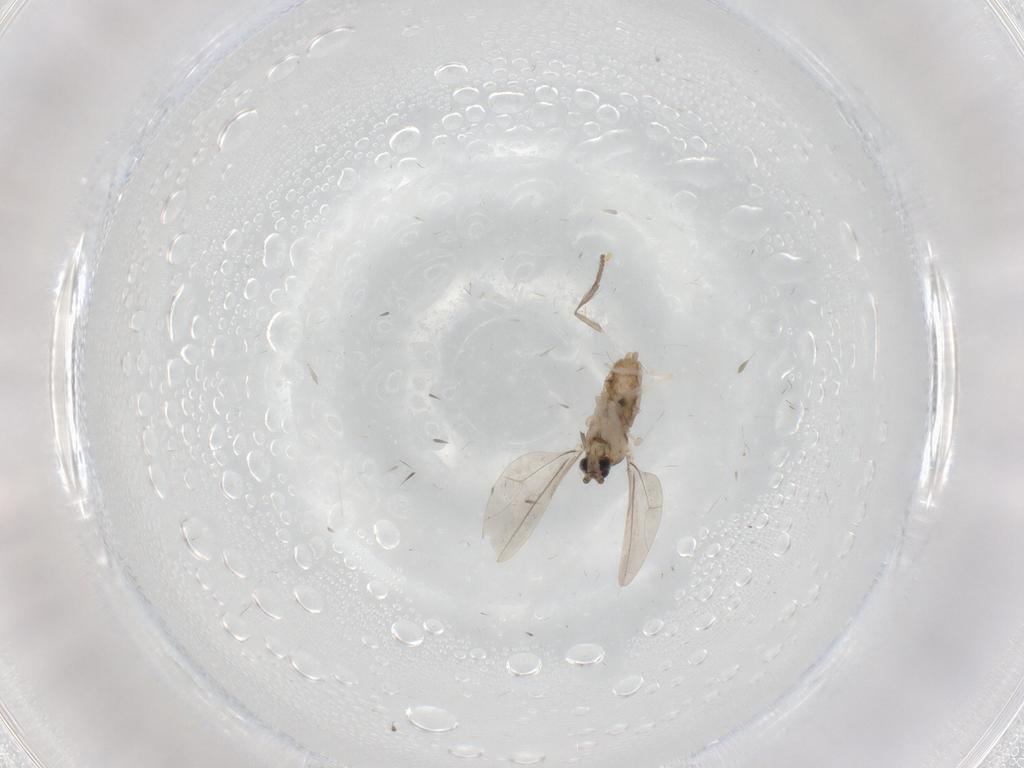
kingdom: Animalia
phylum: Arthropoda
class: Insecta
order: Diptera
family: Cecidomyiidae
